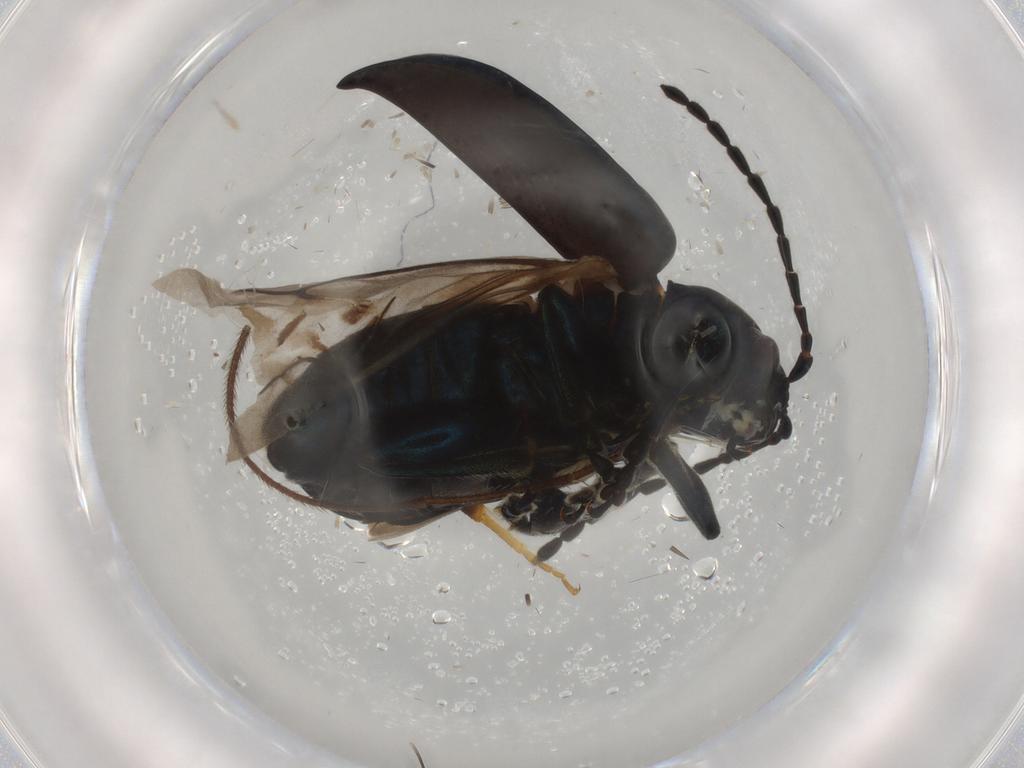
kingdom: Animalia
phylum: Arthropoda
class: Insecta
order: Coleoptera
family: Chrysomelidae
